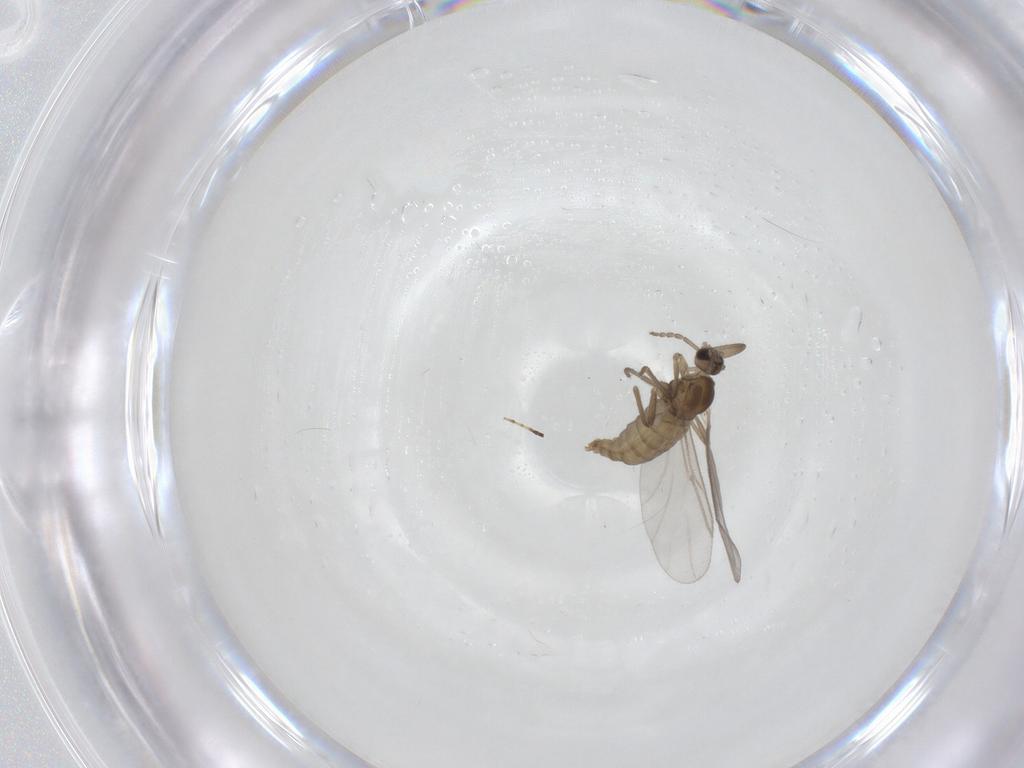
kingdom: Animalia
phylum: Arthropoda
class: Insecta
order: Diptera
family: Cecidomyiidae
